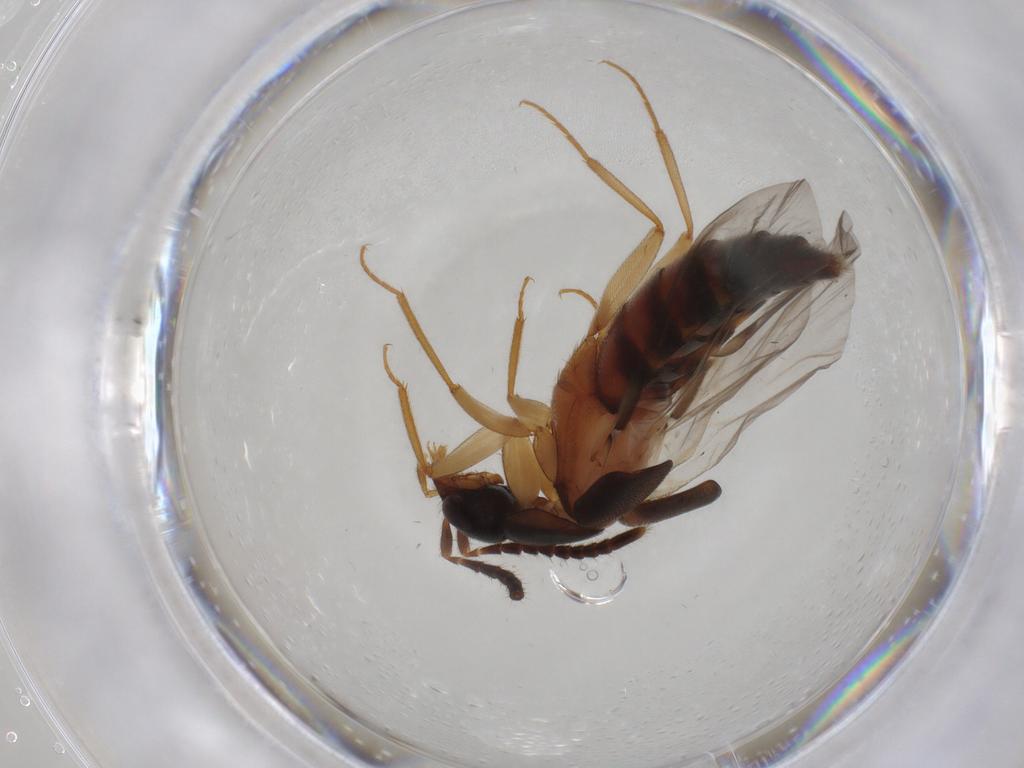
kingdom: Animalia
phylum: Arthropoda
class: Insecta
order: Coleoptera
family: Staphylinidae
